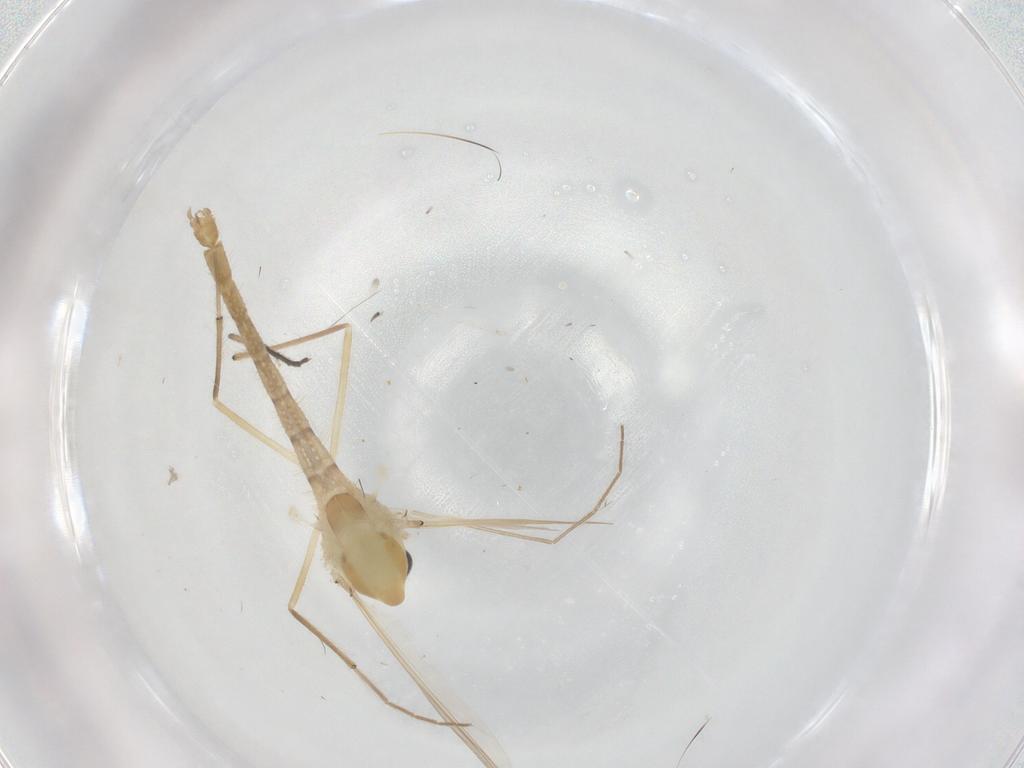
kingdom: Animalia
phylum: Arthropoda
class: Insecta
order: Diptera
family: Chironomidae
